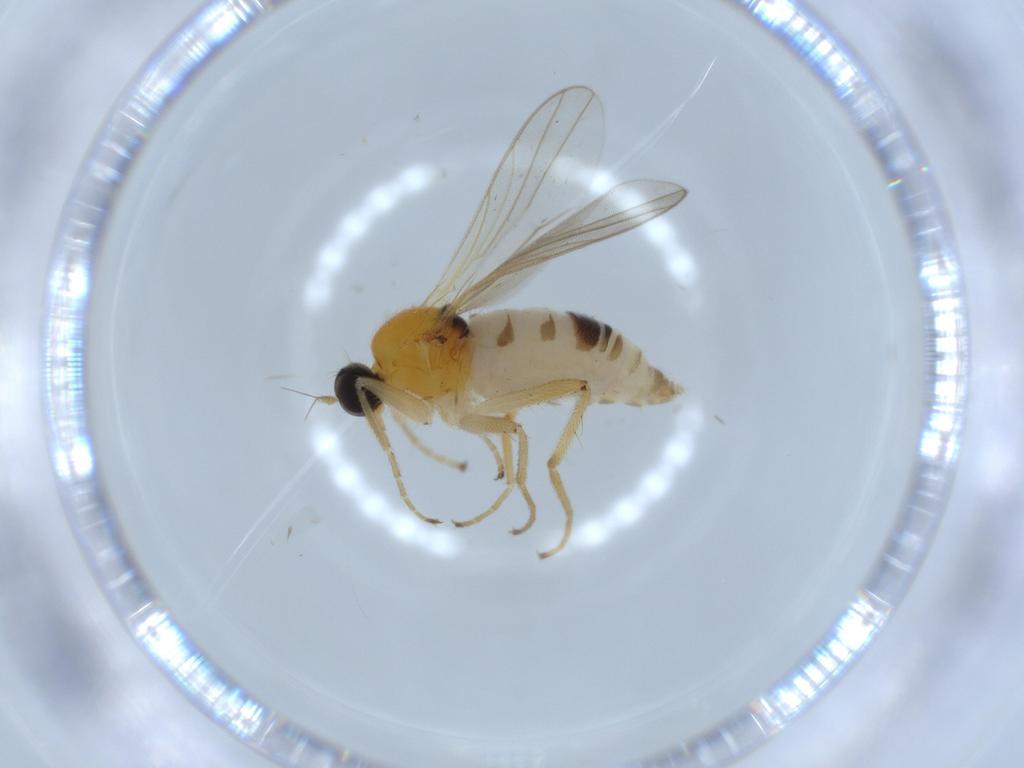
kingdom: Animalia
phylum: Arthropoda
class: Insecta
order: Diptera
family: Hybotidae
